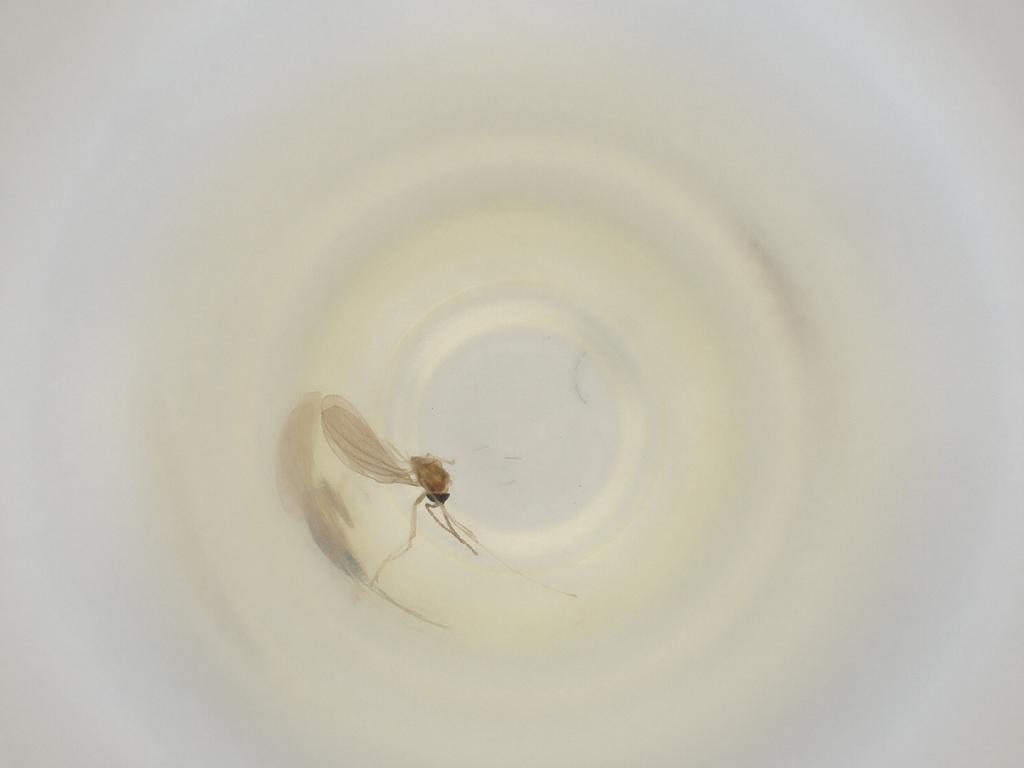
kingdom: Animalia
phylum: Arthropoda
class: Insecta
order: Diptera
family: Cecidomyiidae
